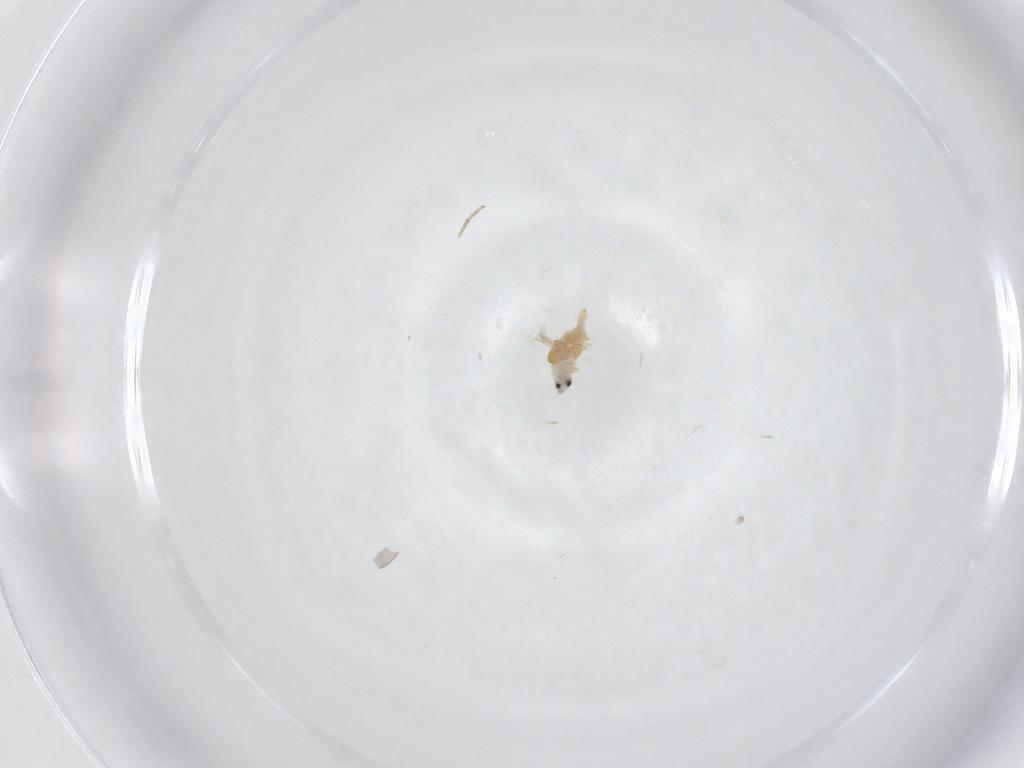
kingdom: Animalia
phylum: Arthropoda
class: Insecta
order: Diptera
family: Ceratopogonidae
